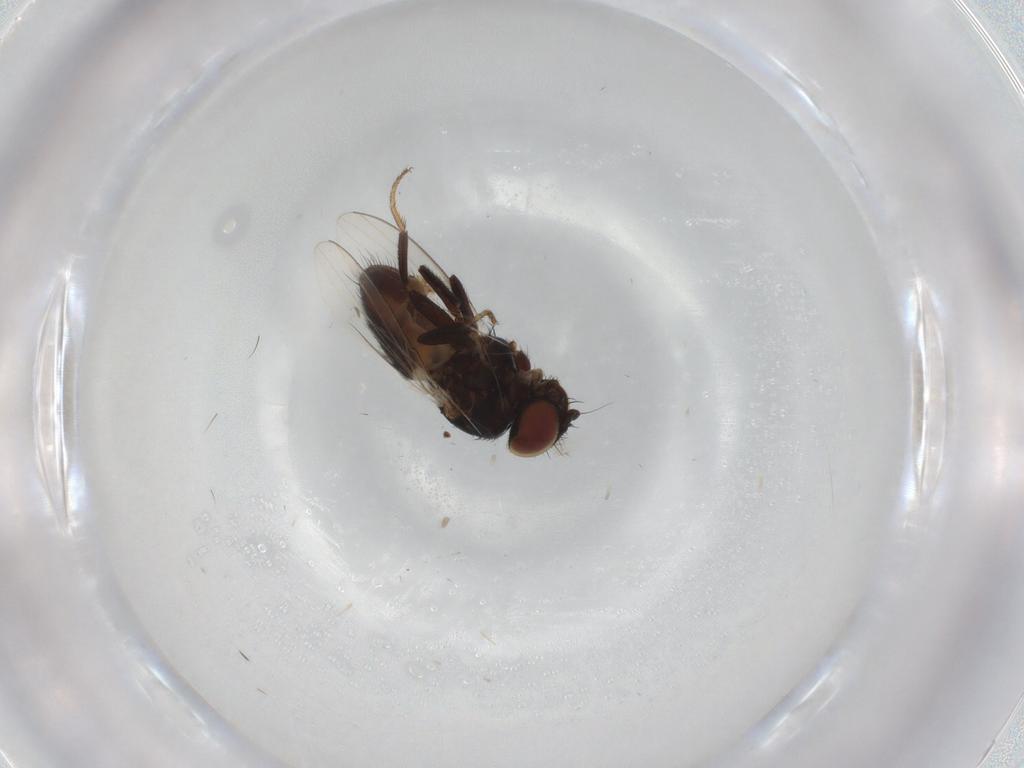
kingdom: Animalia
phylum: Arthropoda
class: Insecta
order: Diptera
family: Milichiidae
